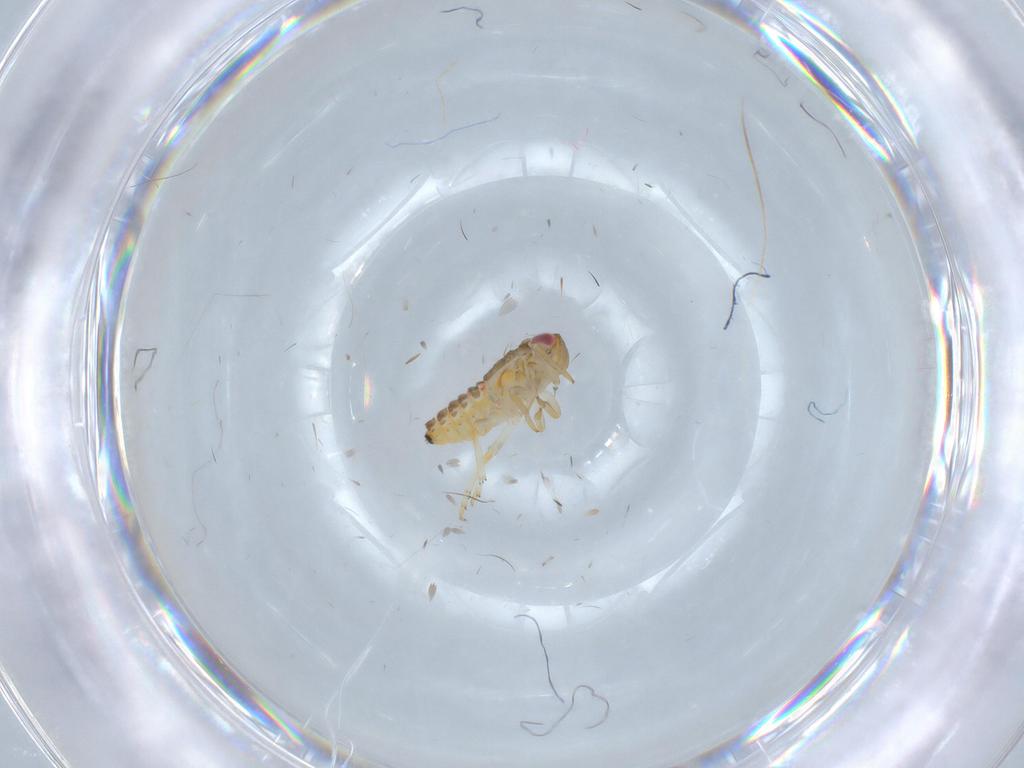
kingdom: Animalia
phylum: Arthropoda
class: Insecta
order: Hemiptera
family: Issidae
